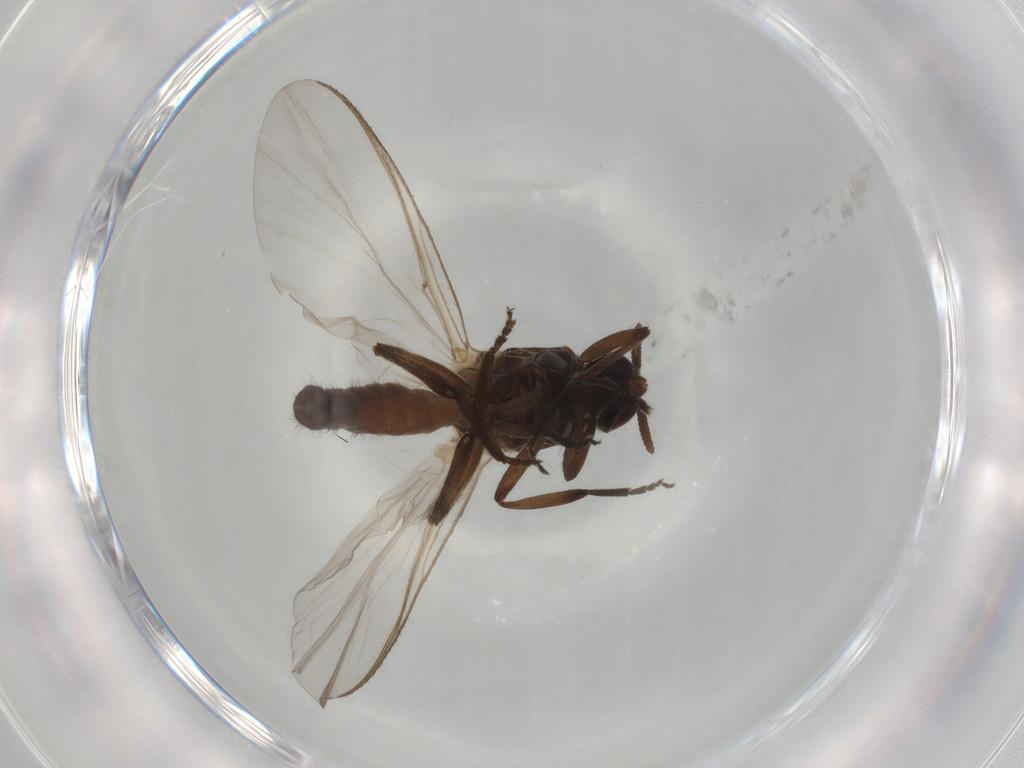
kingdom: Animalia
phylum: Arthropoda
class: Insecta
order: Diptera
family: Simuliidae
